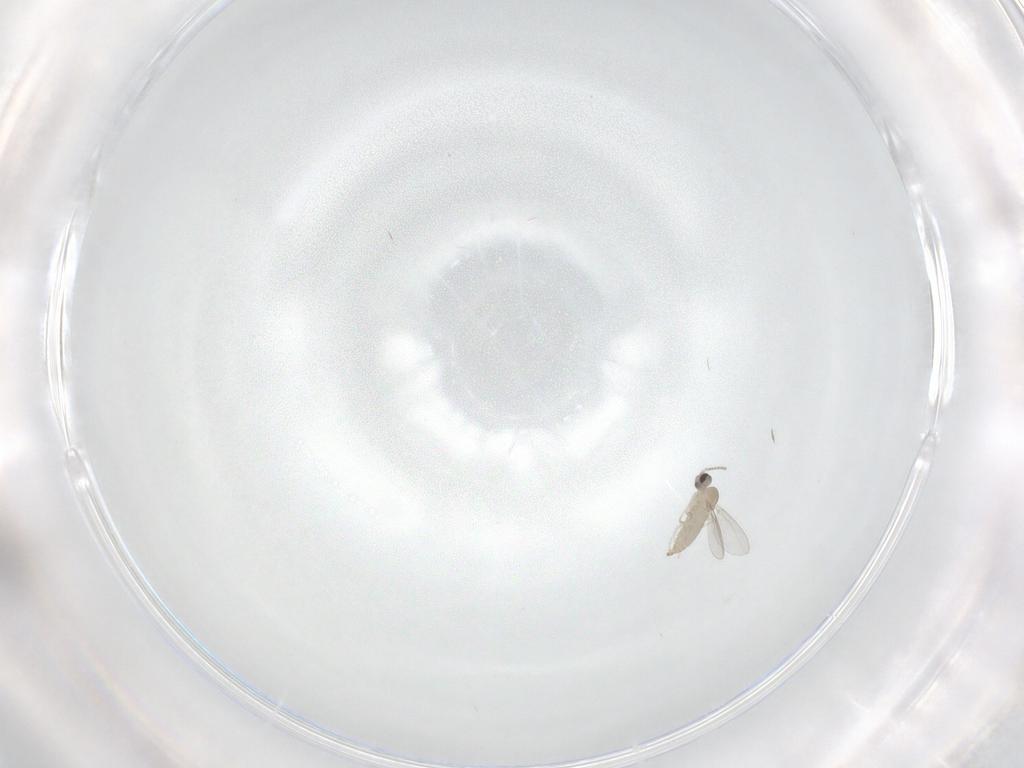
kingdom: Animalia
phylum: Arthropoda
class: Insecta
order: Diptera
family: Cecidomyiidae
